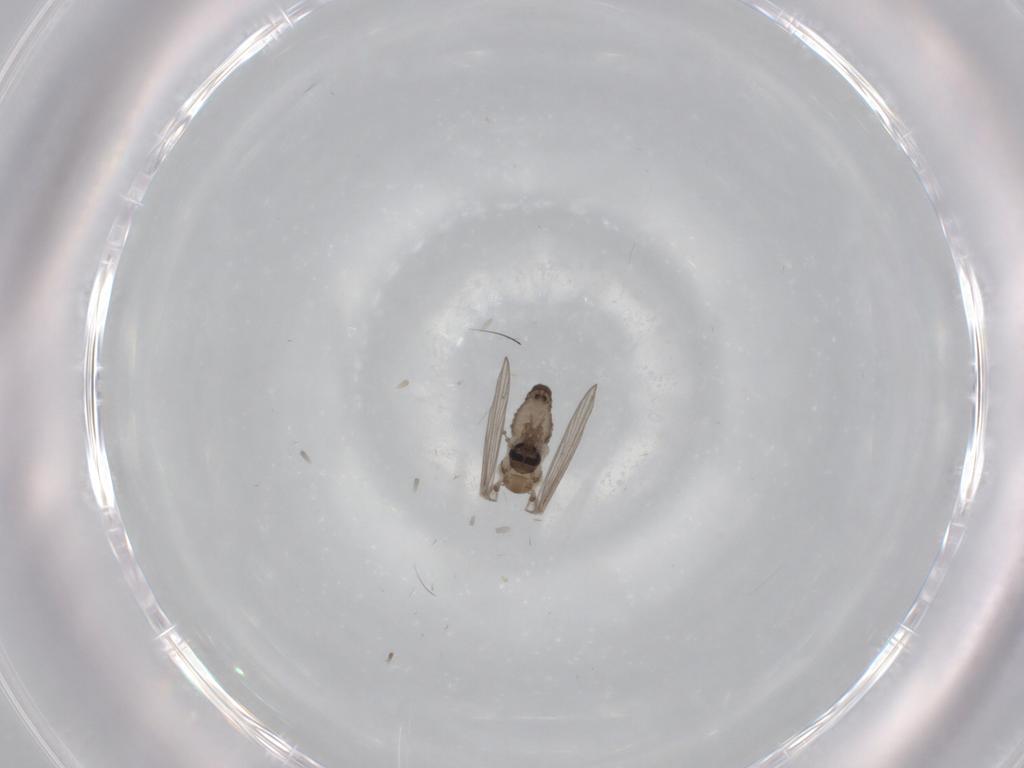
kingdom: Animalia
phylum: Arthropoda
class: Insecta
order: Diptera
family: Psychodidae
